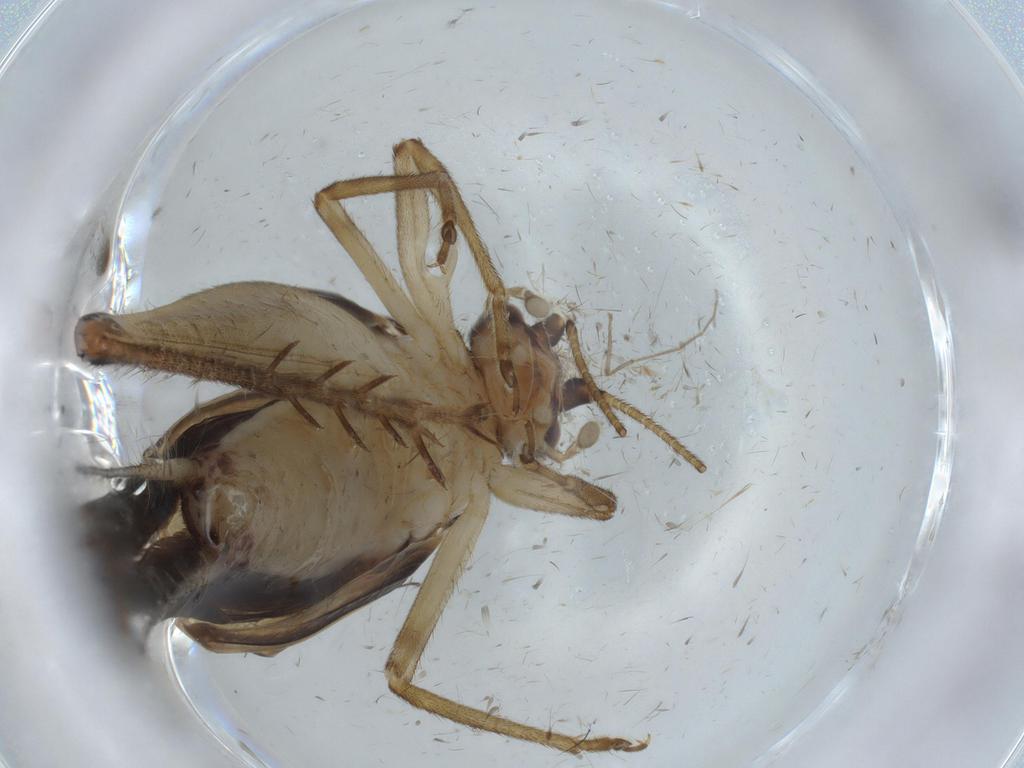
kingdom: Animalia
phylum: Arthropoda
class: Insecta
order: Orthoptera
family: Trigonidiidae
